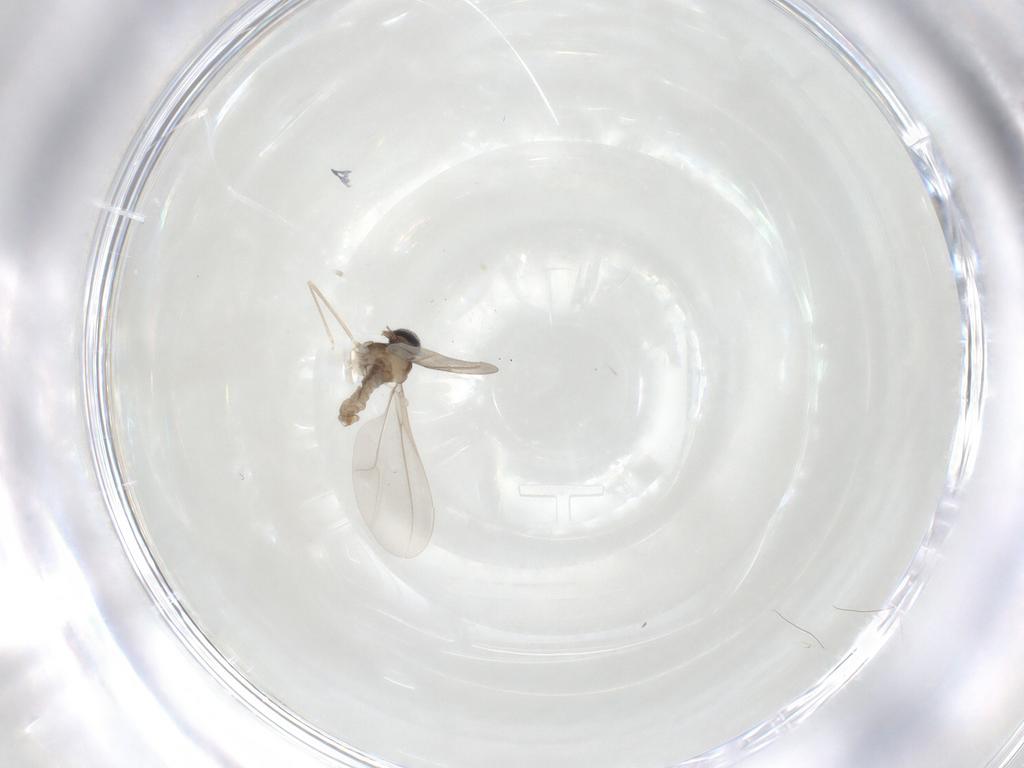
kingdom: Animalia
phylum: Arthropoda
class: Insecta
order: Diptera
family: Cecidomyiidae
